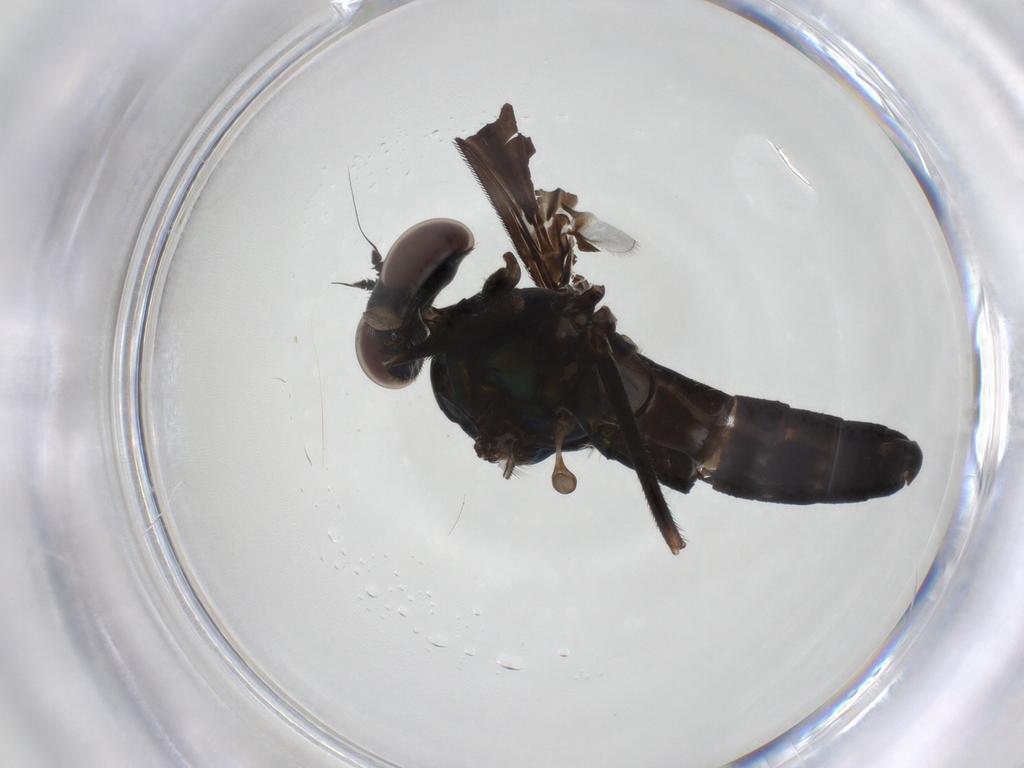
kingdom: Animalia
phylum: Arthropoda
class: Insecta
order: Diptera
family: Dolichopodidae
